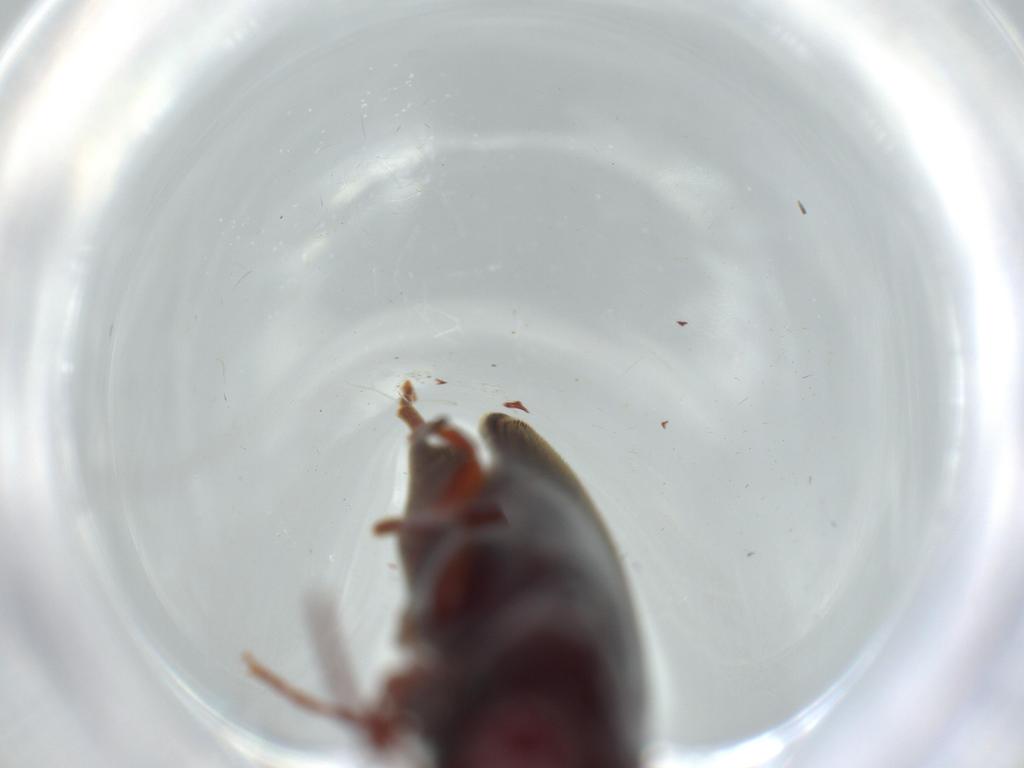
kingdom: Animalia
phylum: Arthropoda
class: Insecta
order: Coleoptera
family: Eucnemidae
